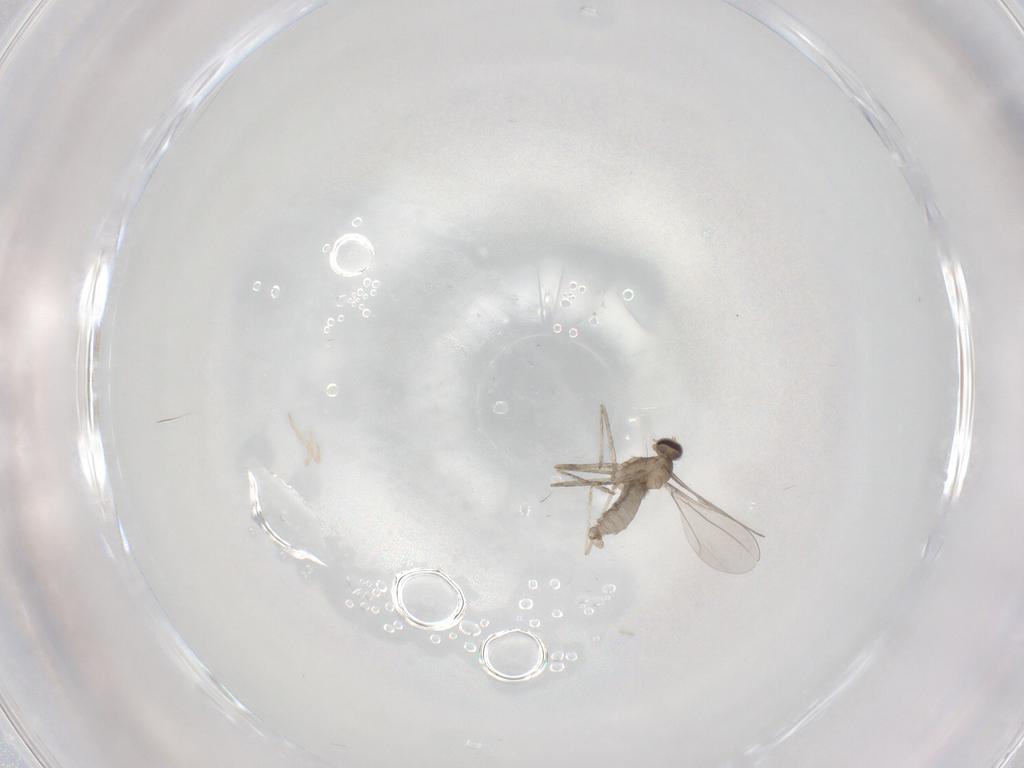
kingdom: Animalia
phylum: Arthropoda
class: Insecta
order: Diptera
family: Cecidomyiidae
